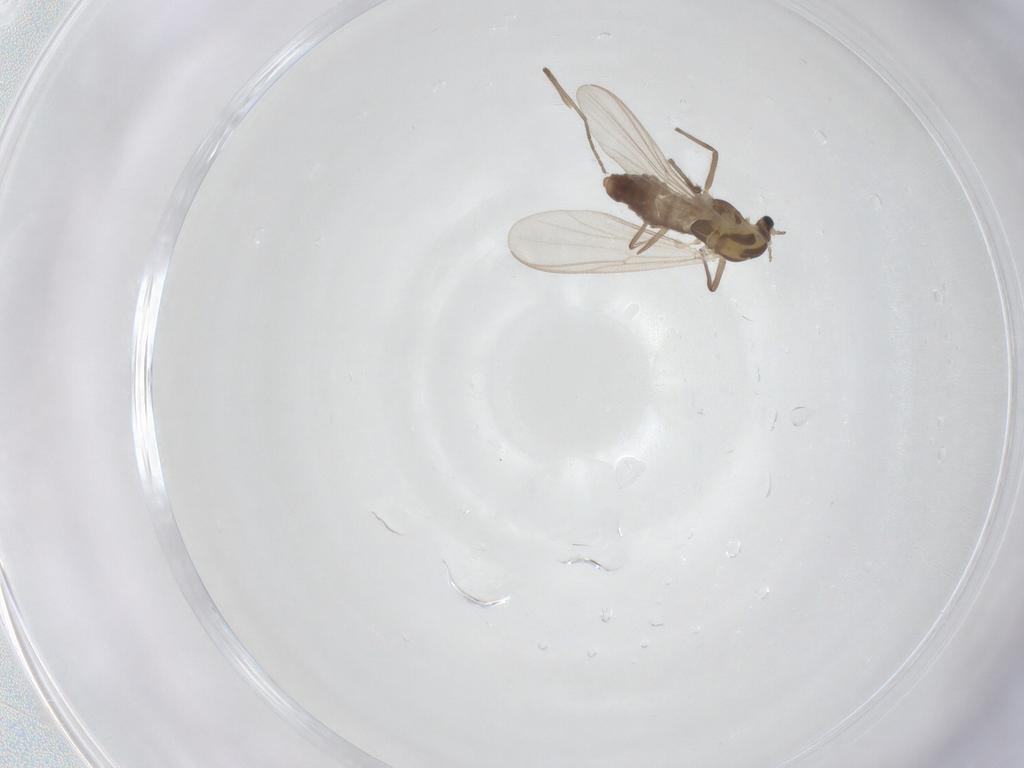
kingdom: Animalia
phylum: Arthropoda
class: Insecta
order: Diptera
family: Chironomidae
